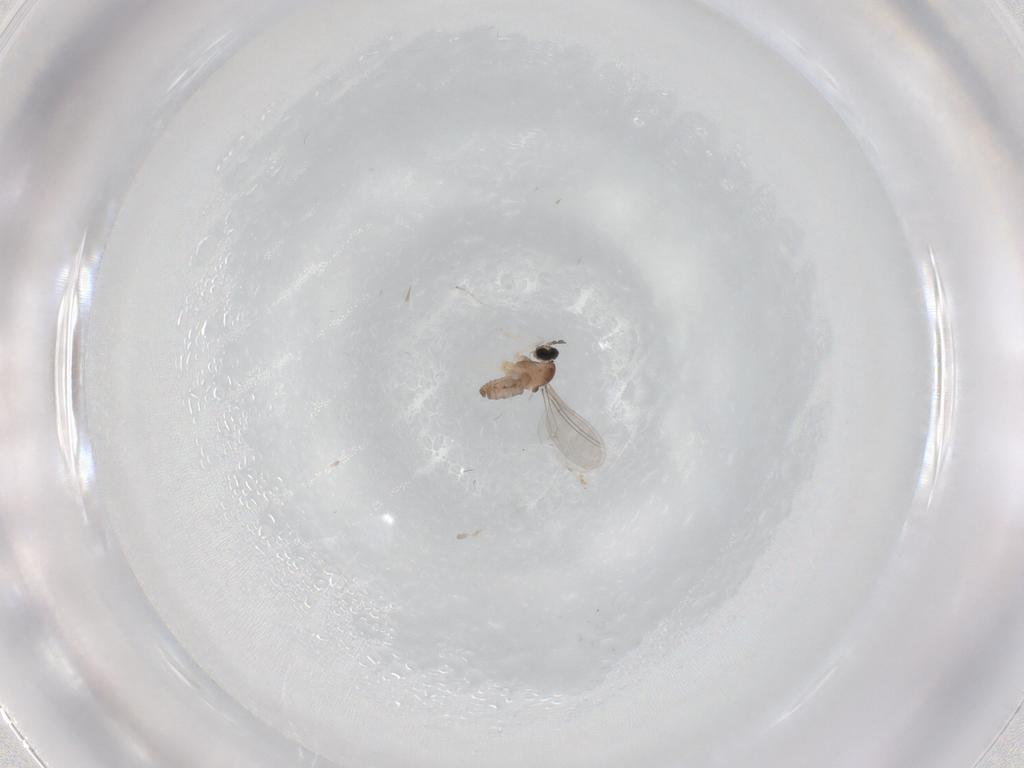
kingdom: Animalia
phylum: Arthropoda
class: Insecta
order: Diptera
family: Cecidomyiidae
